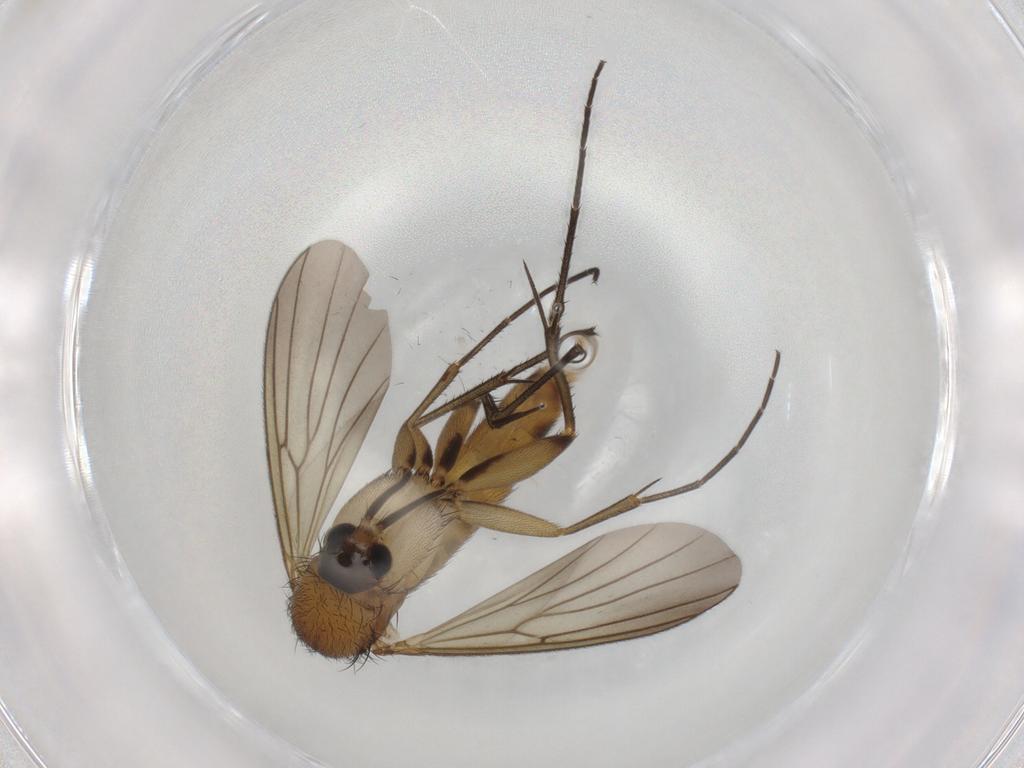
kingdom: Animalia
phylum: Arthropoda
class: Insecta
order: Diptera
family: Mycetophilidae
